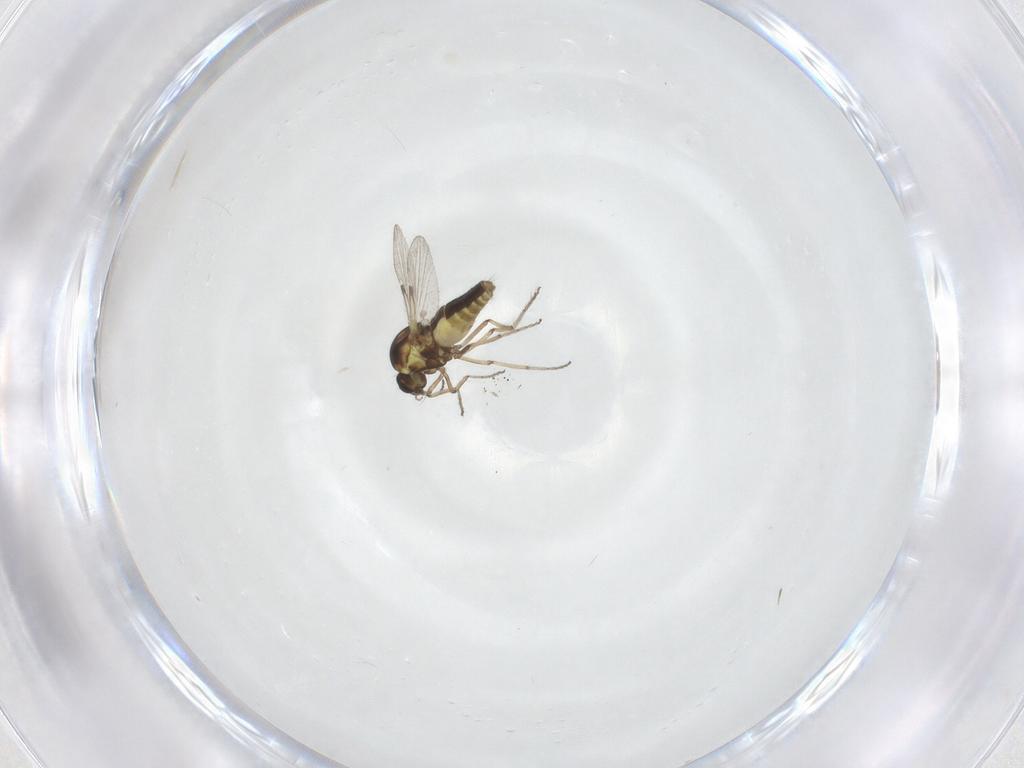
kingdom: Animalia
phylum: Arthropoda
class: Insecta
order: Diptera
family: Sciaridae
